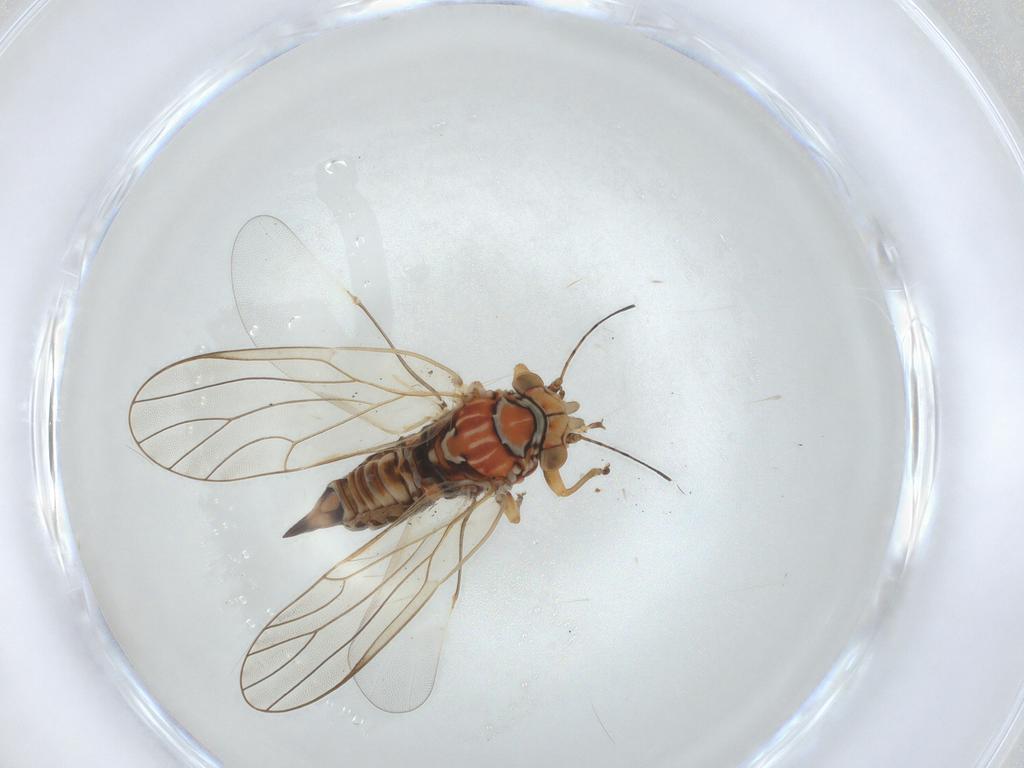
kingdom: Animalia
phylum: Arthropoda
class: Insecta
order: Hemiptera
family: Psyllidae
